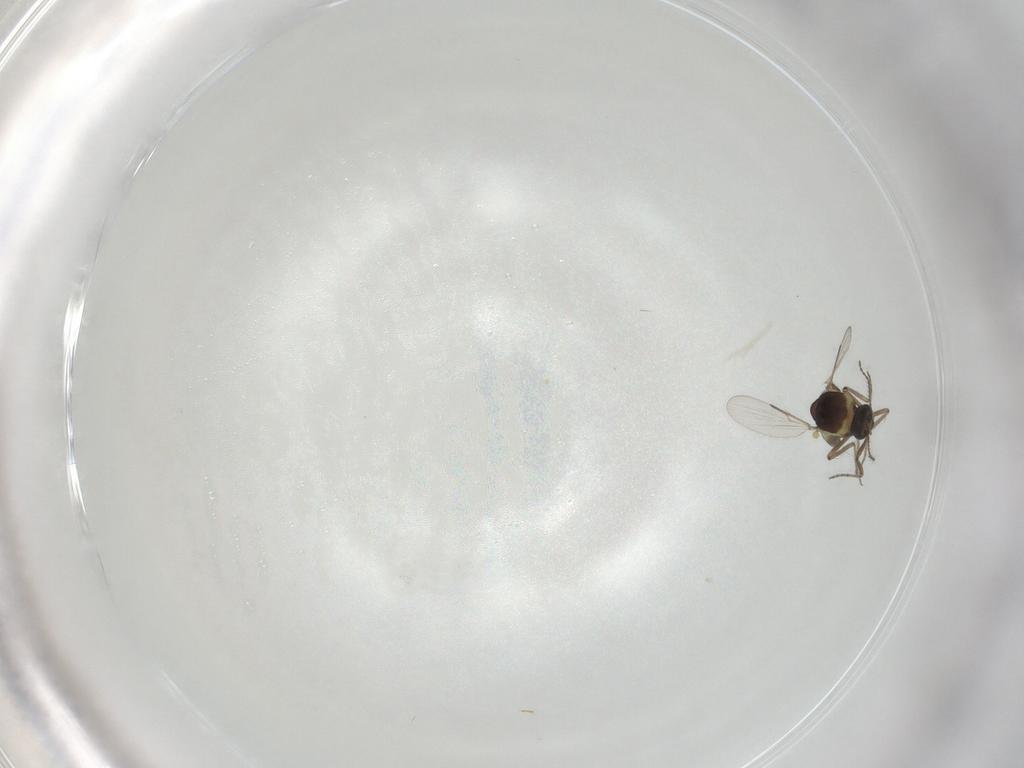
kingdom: Animalia
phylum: Arthropoda
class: Insecta
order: Diptera
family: Ceratopogonidae
